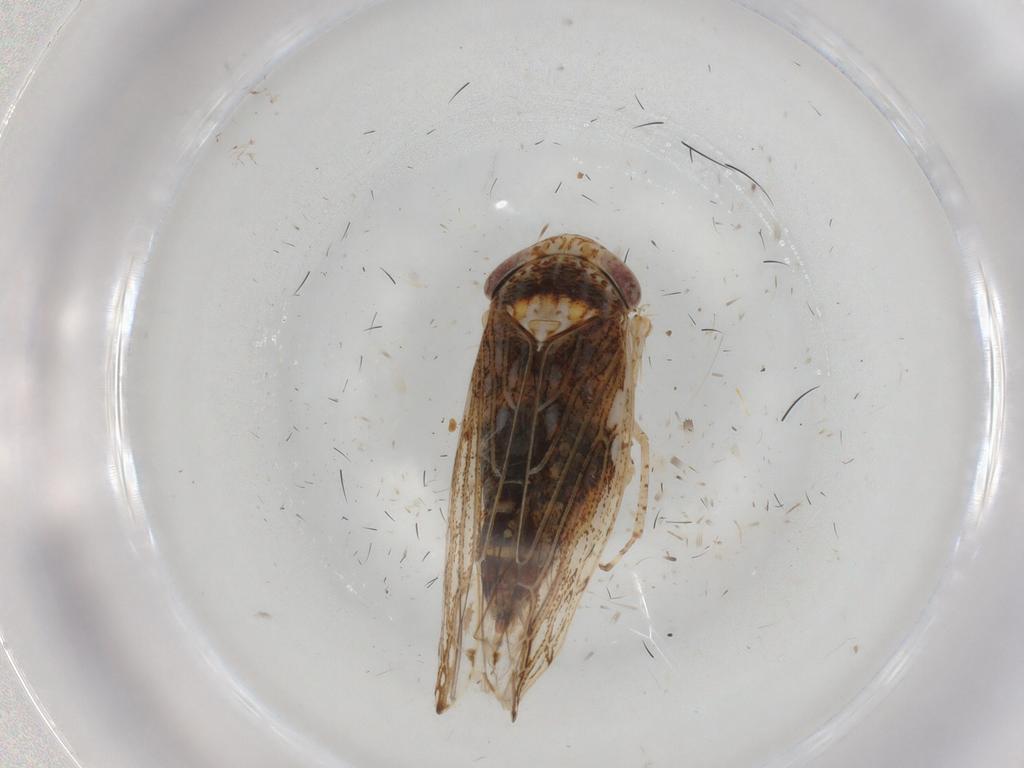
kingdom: Animalia
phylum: Arthropoda
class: Insecta
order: Hemiptera
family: Cicadellidae
